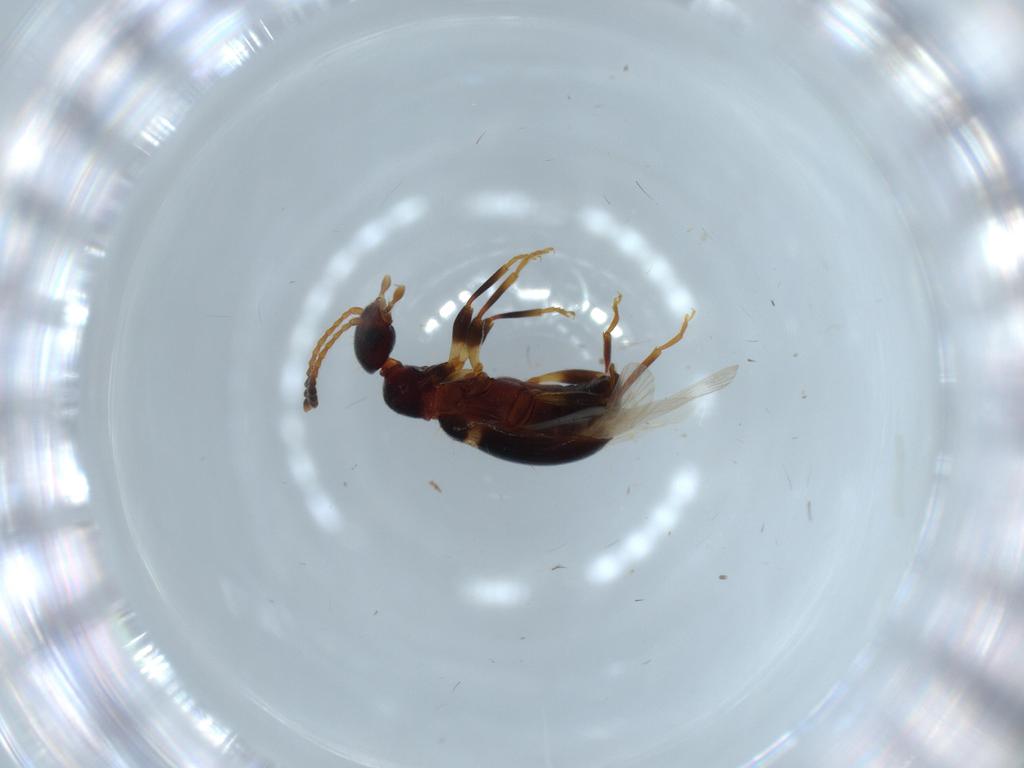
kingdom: Animalia
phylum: Arthropoda
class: Insecta
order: Coleoptera
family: Anthicidae
